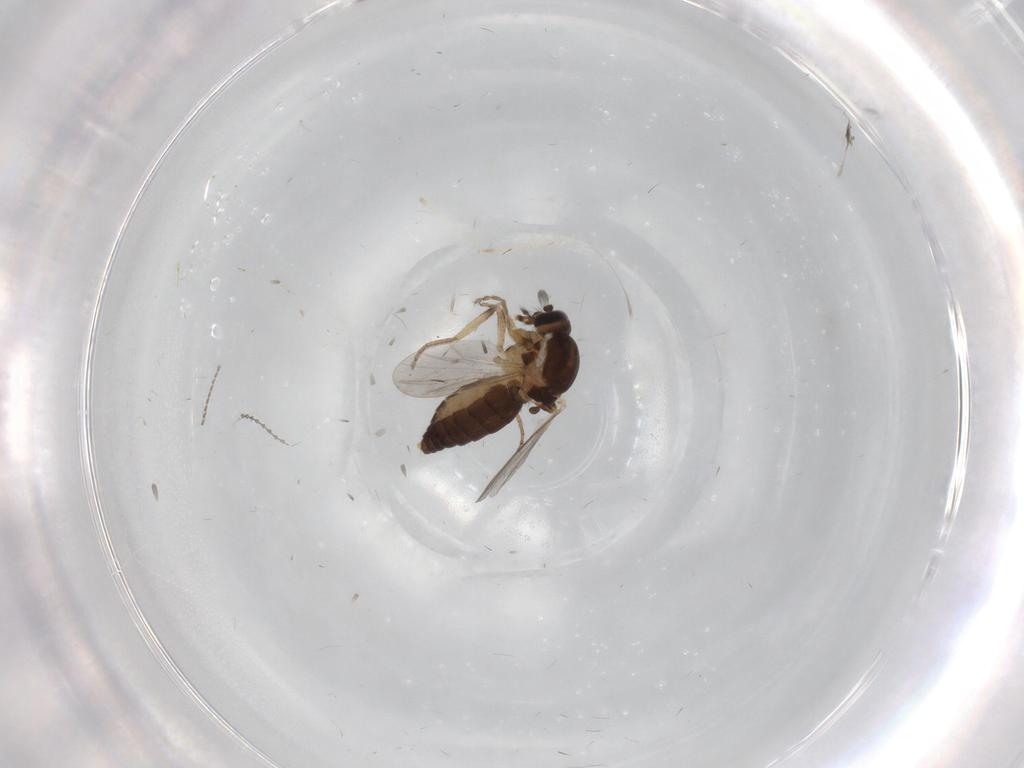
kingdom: Animalia
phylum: Arthropoda
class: Insecta
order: Diptera
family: Ceratopogonidae
